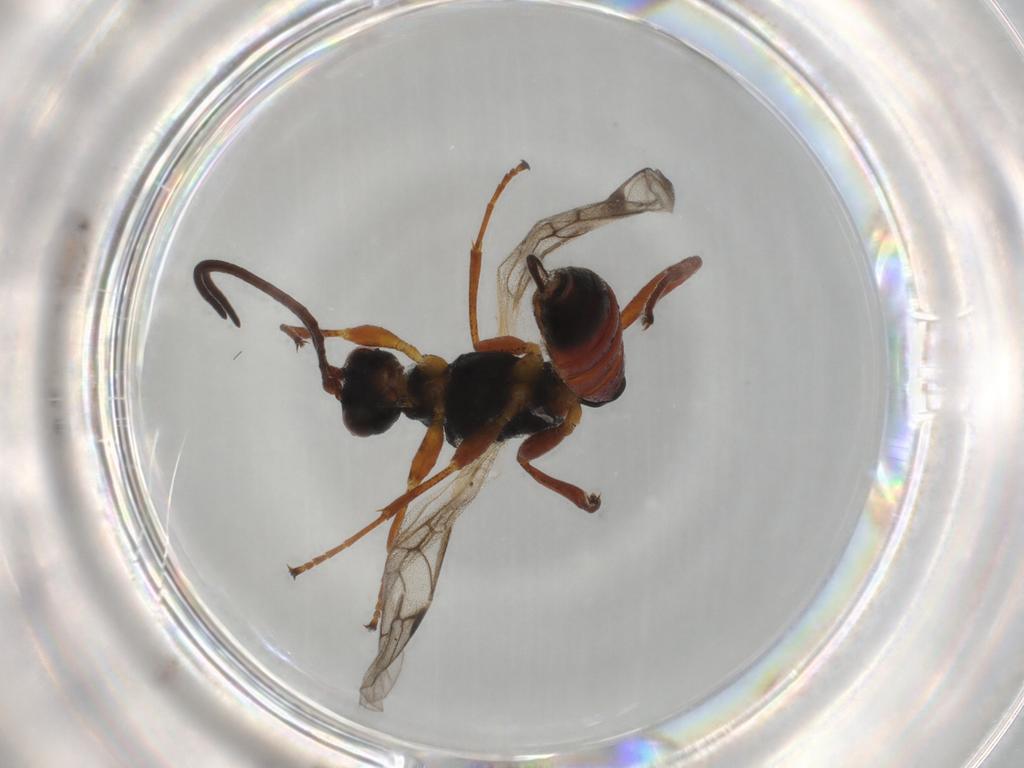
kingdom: Animalia
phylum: Arthropoda
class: Insecta
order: Hymenoptera
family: Ichneumonidae
